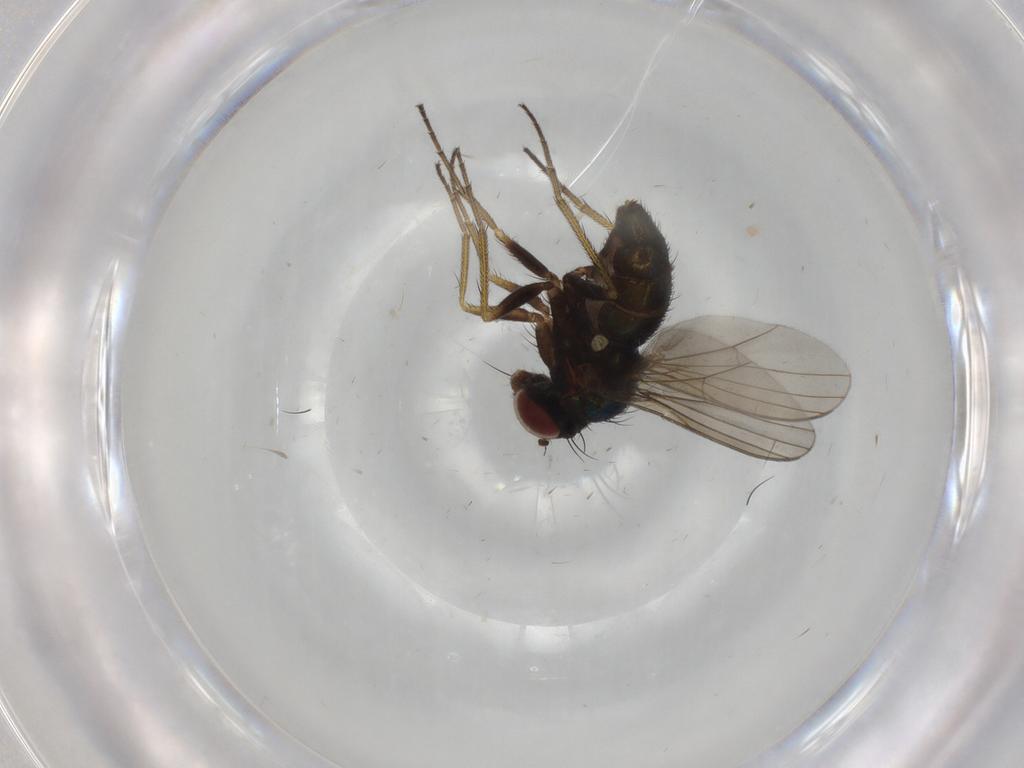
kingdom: Animalia
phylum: Arthropoda
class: Insecta
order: Diptera
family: Dolichopodidae
